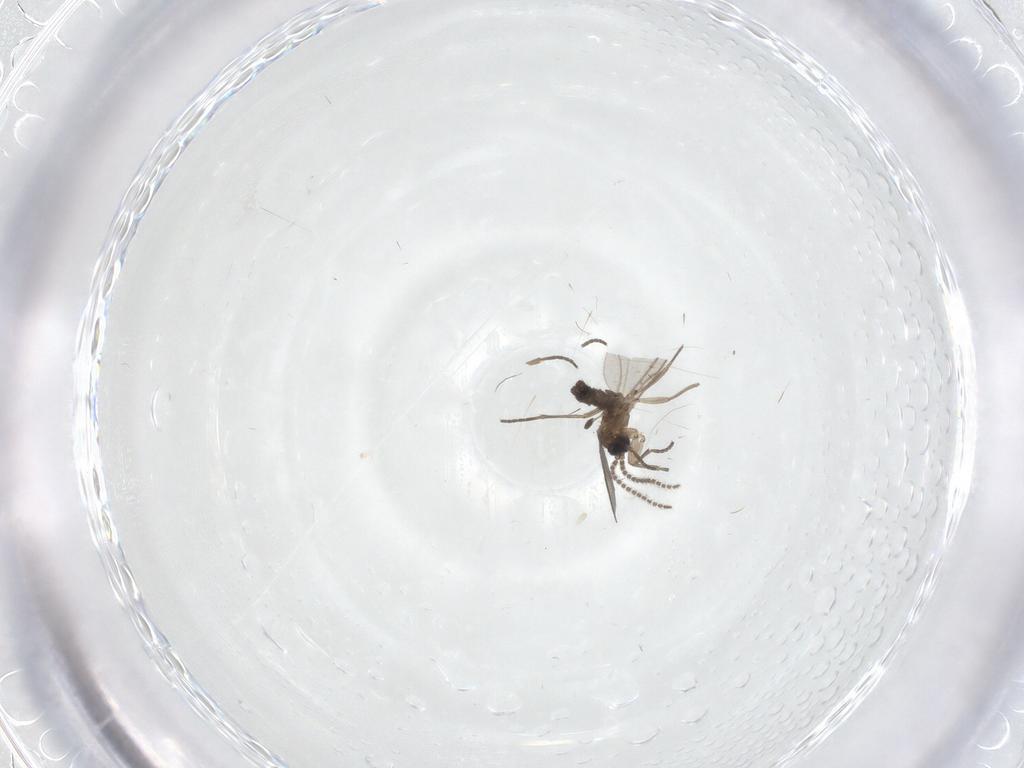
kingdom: Animalia
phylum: Arthropoda
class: Insecta
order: Diptera
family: Cecidomyiidae
